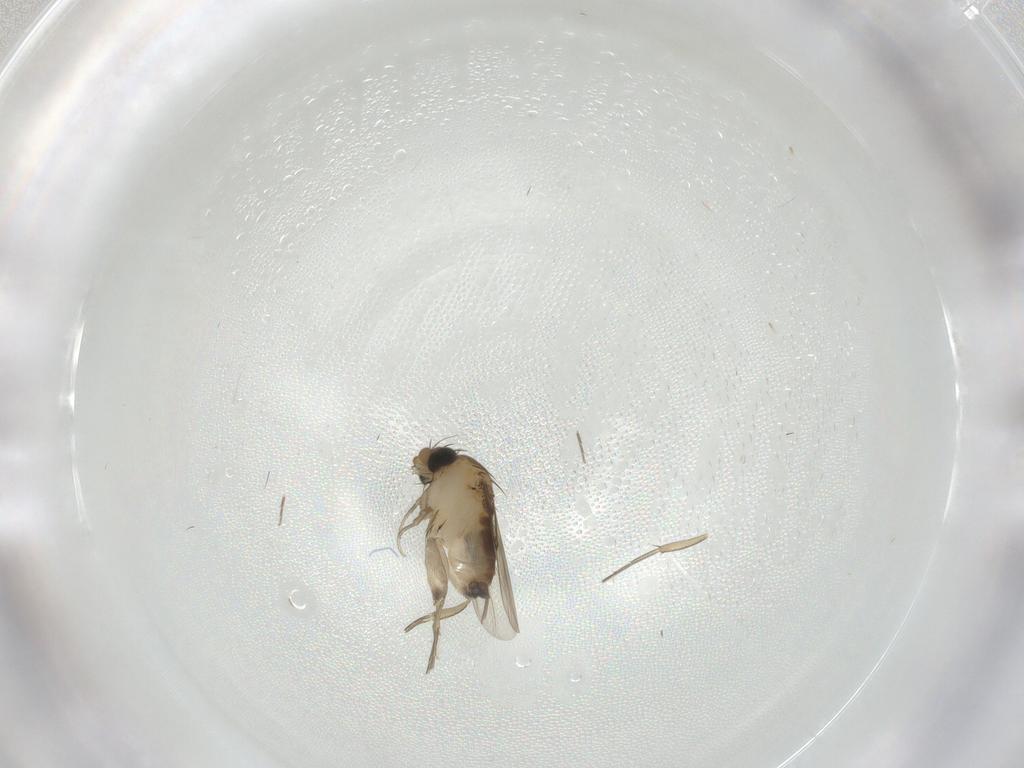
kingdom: Animalia
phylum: Arthropoda
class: Insecta
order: Diptera
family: Phoridae
